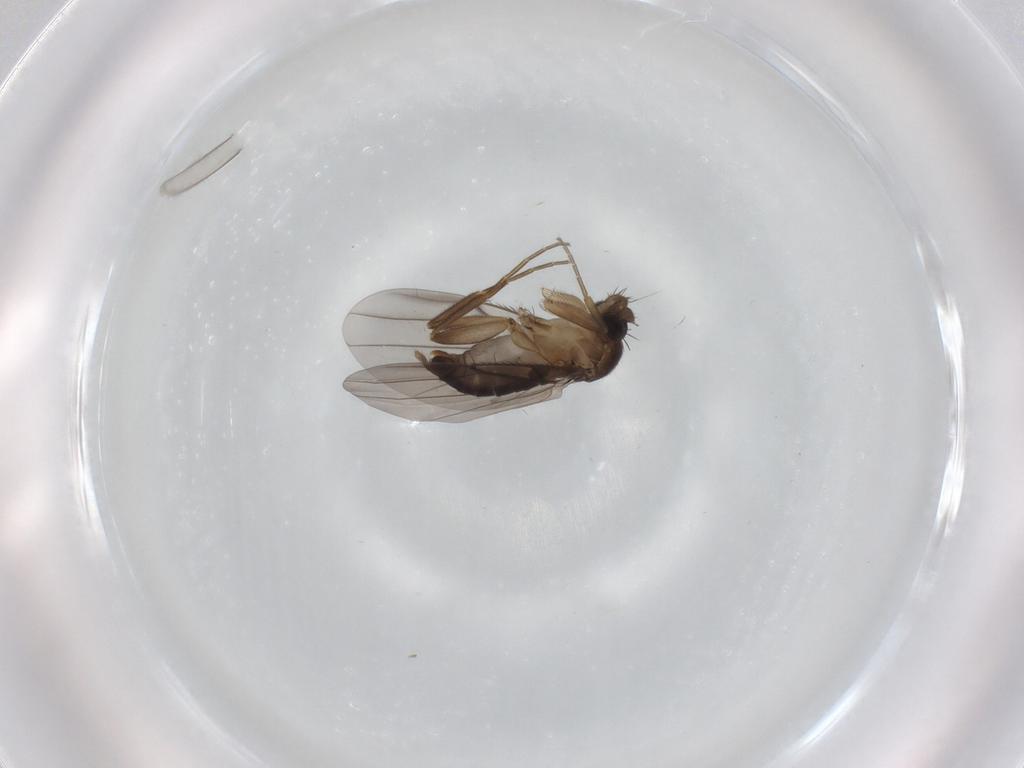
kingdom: Animalia
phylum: Arthropoda
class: Insecta
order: Diptera
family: Phoridae
